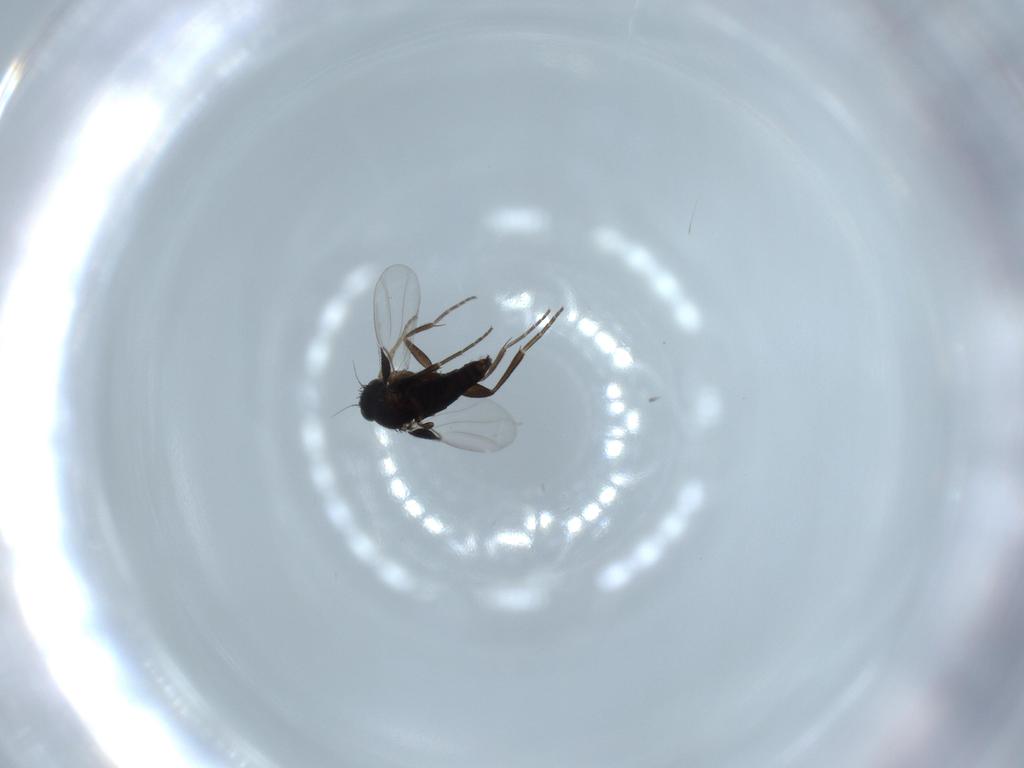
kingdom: Animalia
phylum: Arthropoda
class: Insecta
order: Diptera
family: Phoridae
